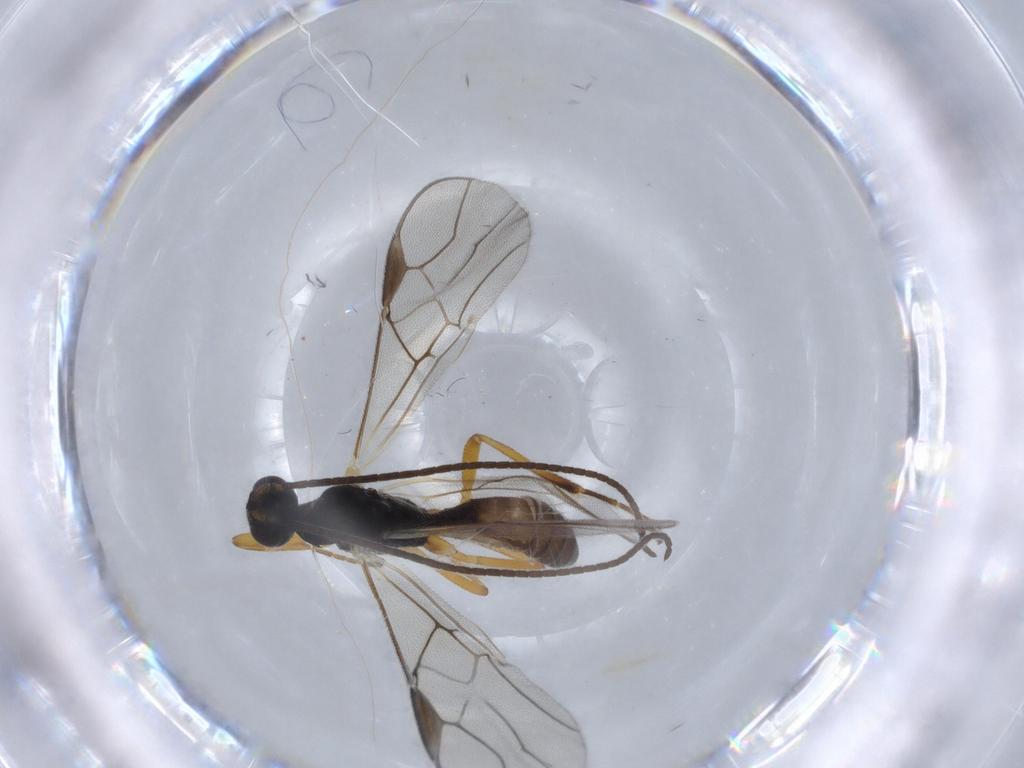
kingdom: Animalia
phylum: Arthropoda
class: Insecta
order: Hymenoptera
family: Braconidae
